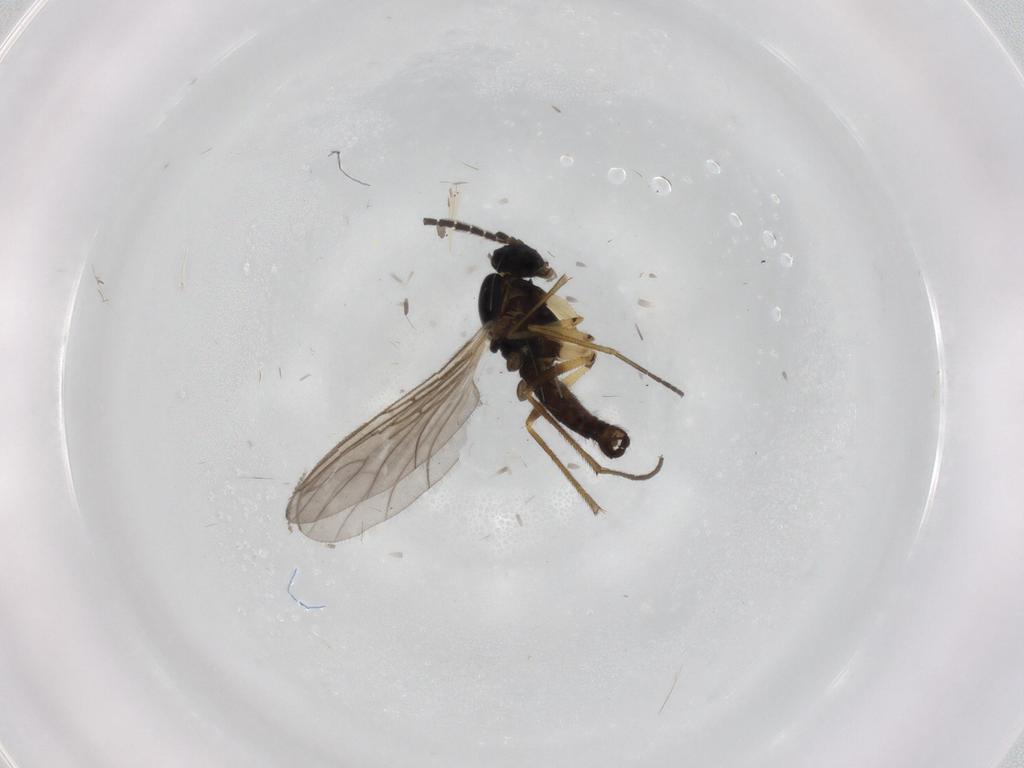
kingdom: Animalia
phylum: Arthropoda
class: Insecta
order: Diptera
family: Sciaridae
